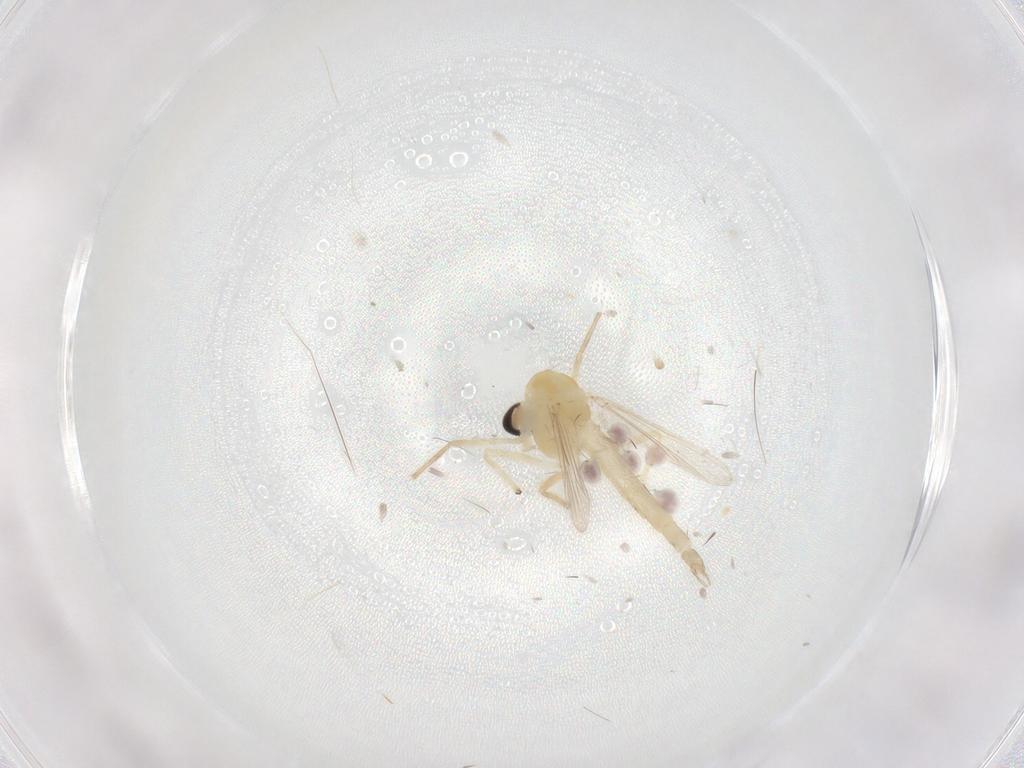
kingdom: Animalia
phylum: Arthropoda
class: Insecta
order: Diptera
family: Chironomidae
